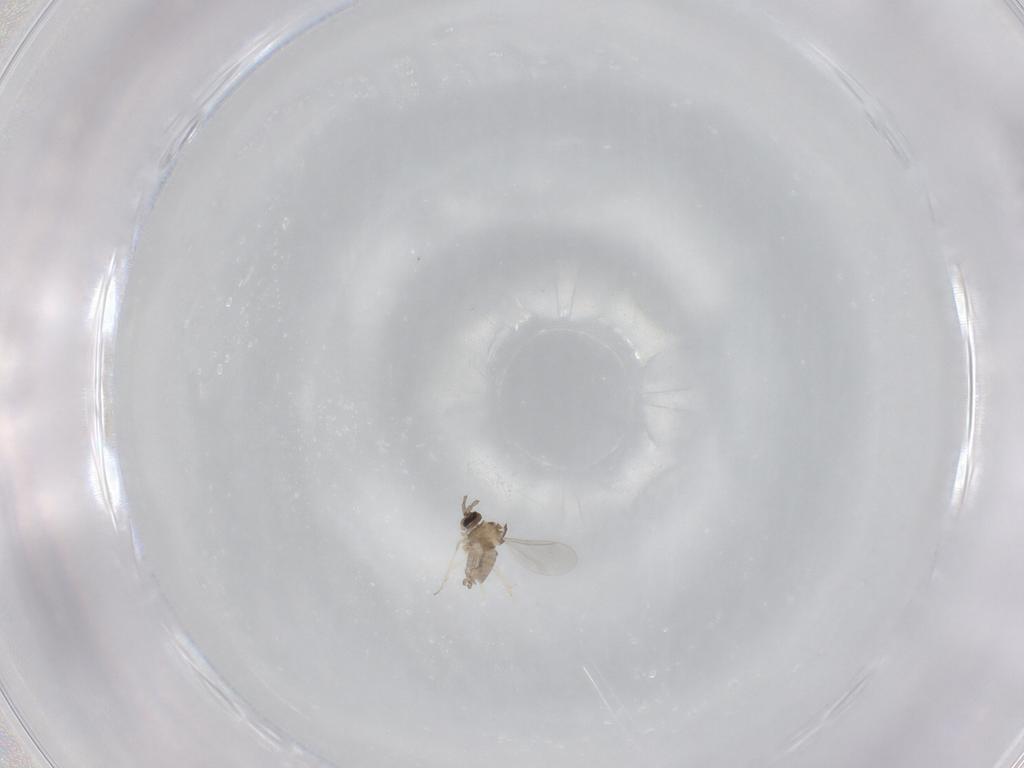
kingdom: Animalia
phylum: Arthropoda
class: Insecta
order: Diptera
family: Cecidomyiidae
